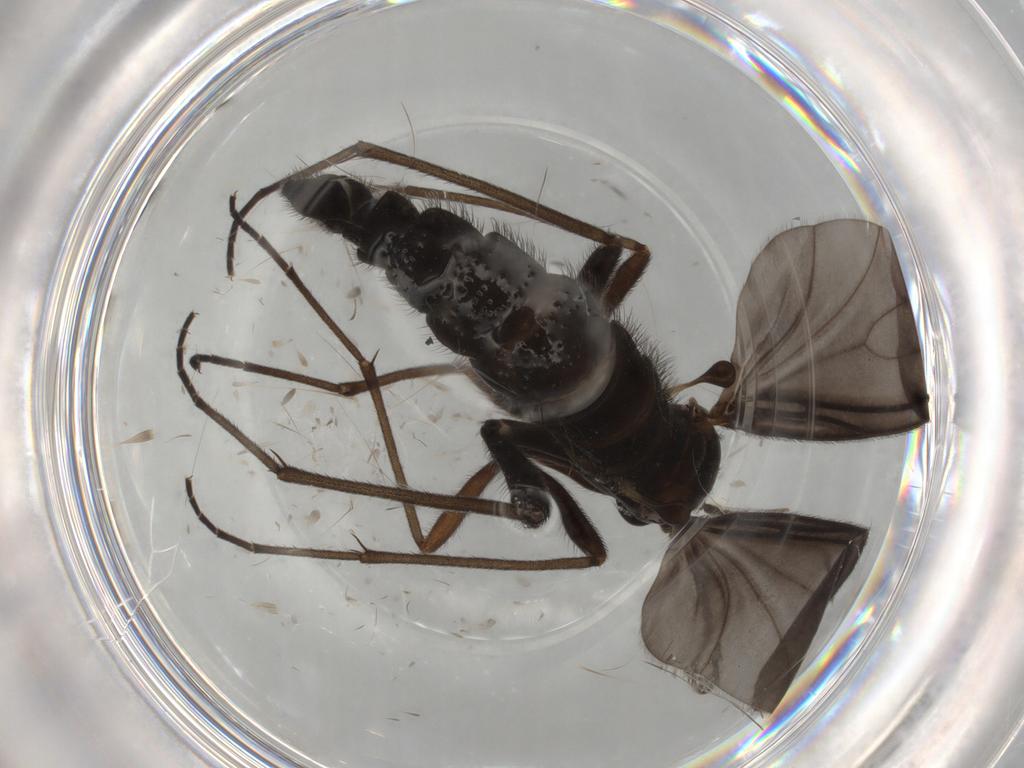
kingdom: Animalia
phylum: Arthropoda
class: Insecta
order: Diptera
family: Sciaridae
